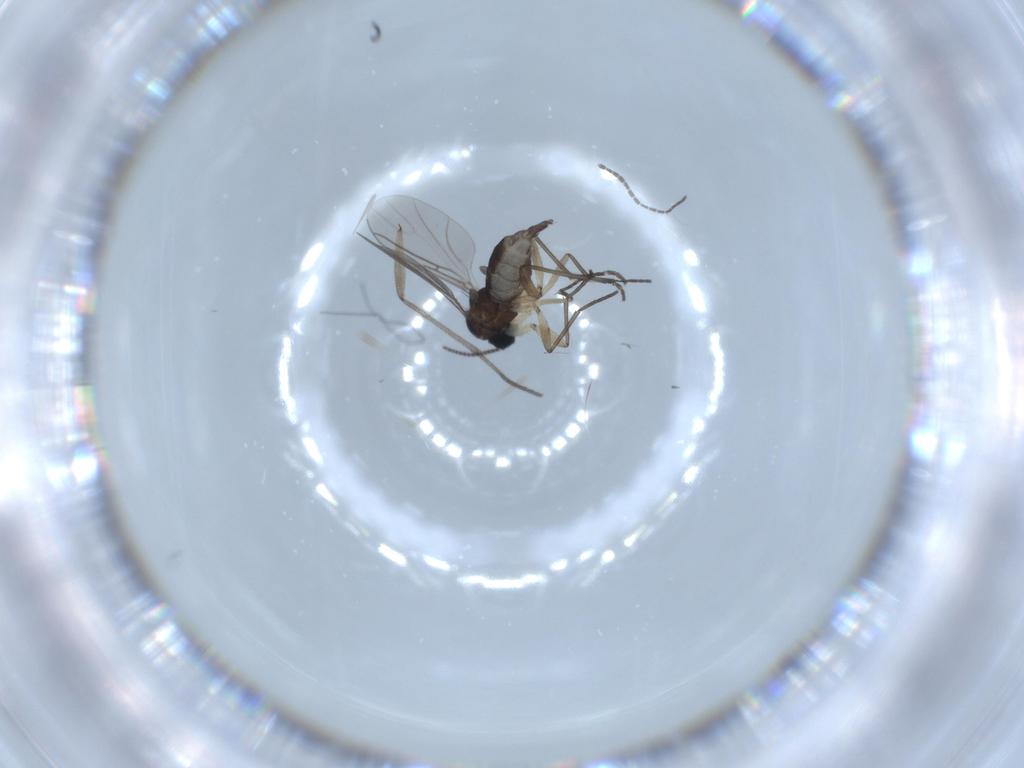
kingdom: Animalia
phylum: Arthropoda
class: Insecta
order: Diptera
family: Sciaridae
